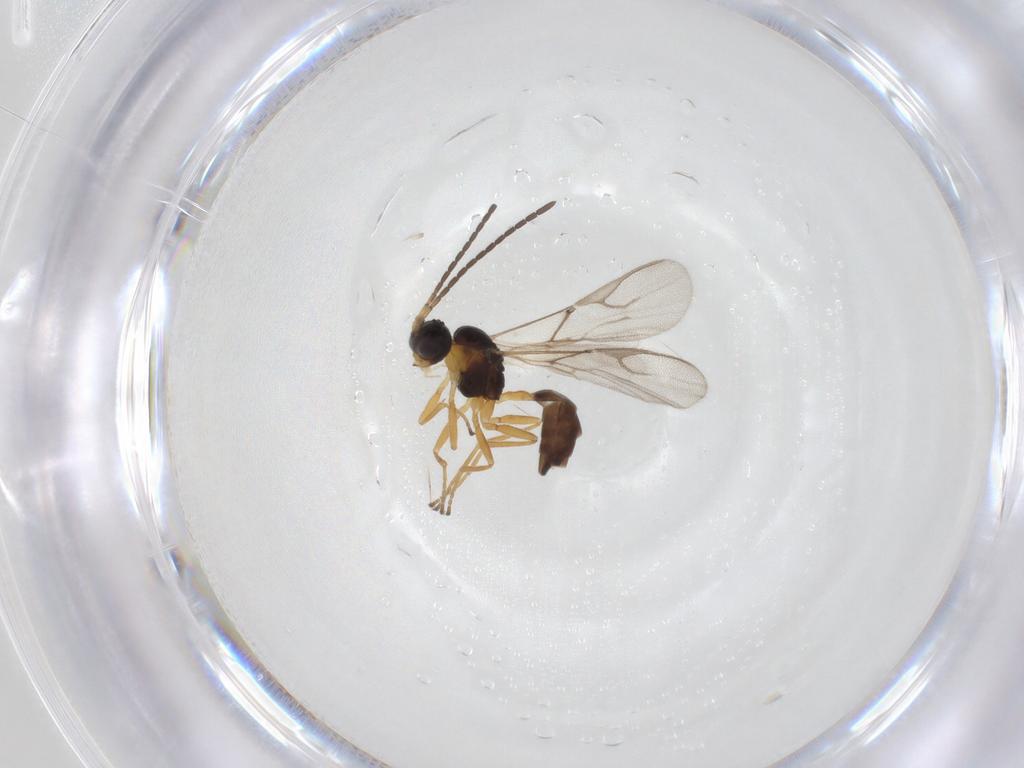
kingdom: Animalia
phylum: Arthropoda
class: Insecta
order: Hymenoptera
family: Braconidae
